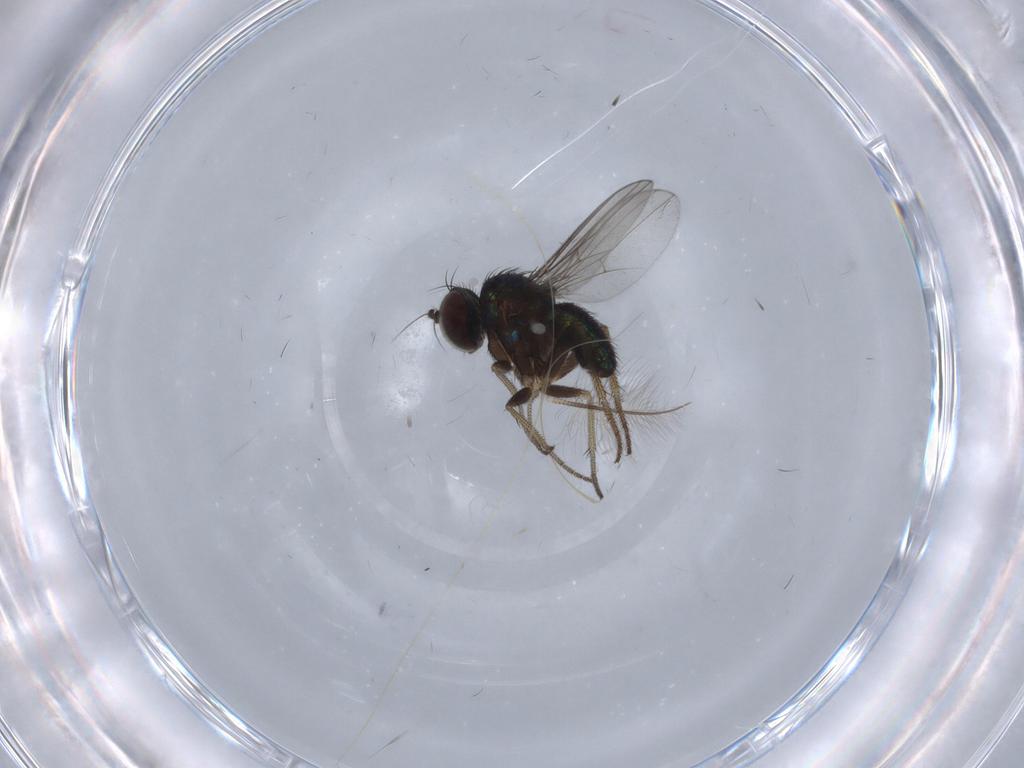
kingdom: Animalia
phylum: Arthropoda
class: Insecta
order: Diptera
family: Chironomidae
